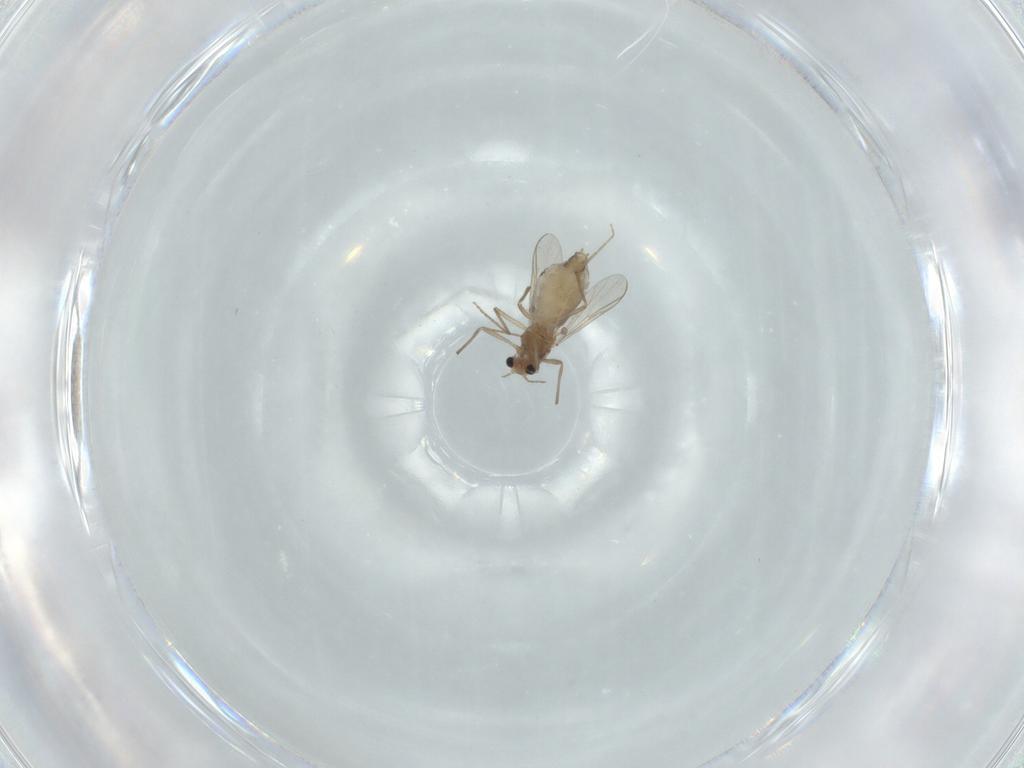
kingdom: Animalia
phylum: Arthropoda
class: Insecta
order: Diptera
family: Chironomidae
